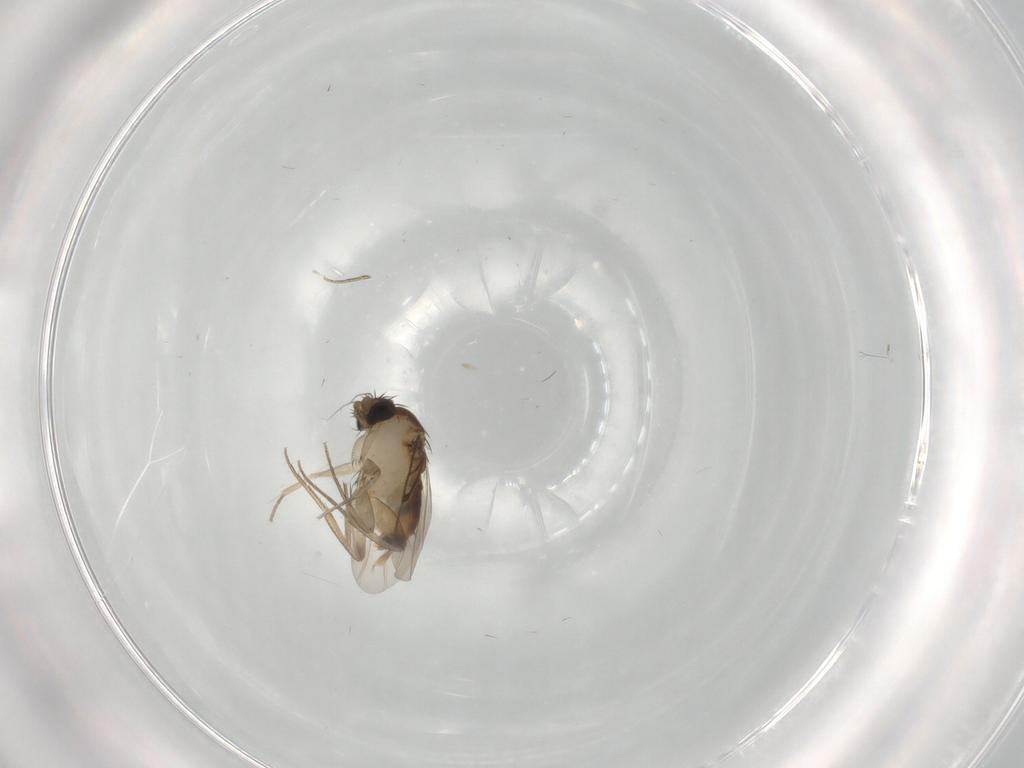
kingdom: Animalia
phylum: Arthropoda
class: Insecta
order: Diptera
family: Phoridae
